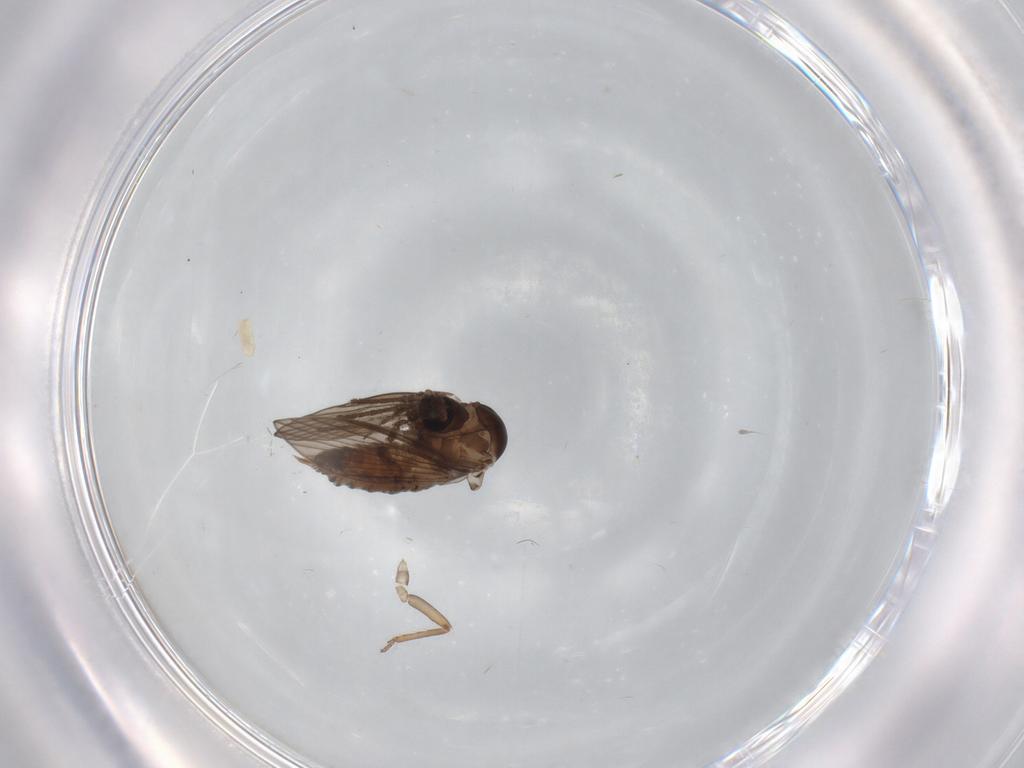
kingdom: Animalia
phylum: Arthropoda
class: Insecta
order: Diptera
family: Psychodidae
